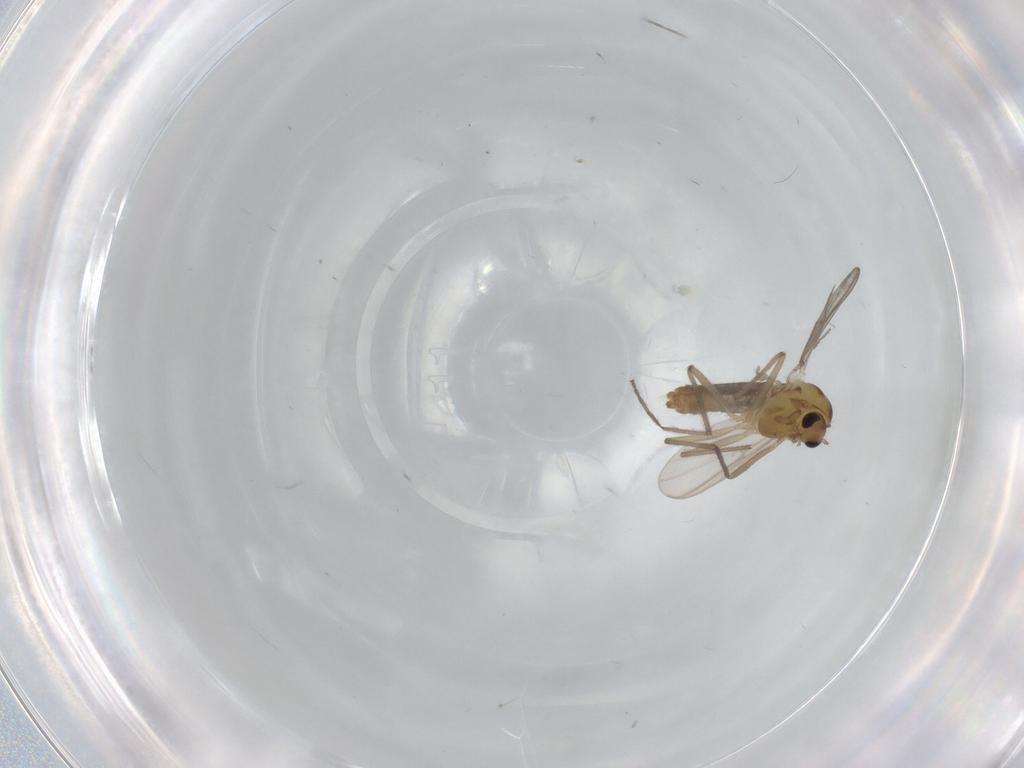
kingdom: Animalia
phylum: Arthropoda
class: Insecta
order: Diptera
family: Chironomidae
